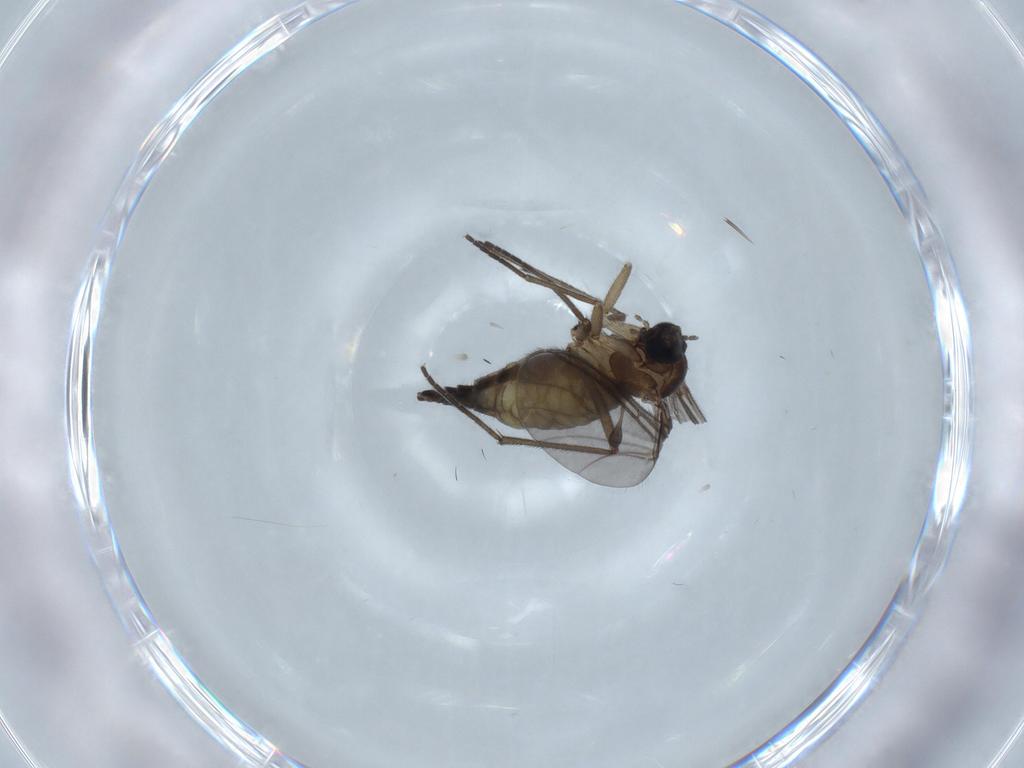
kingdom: Animalia
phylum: Arthropoda
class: Insecta
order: Diptera
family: Sciaridae
